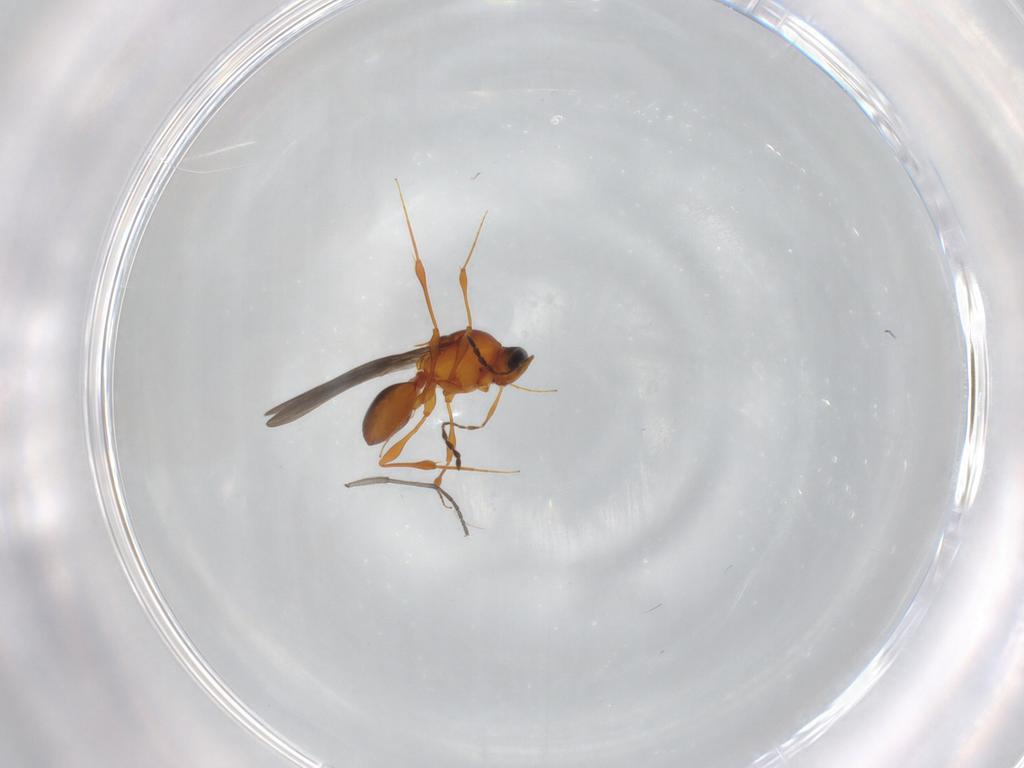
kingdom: Animalia
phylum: Arthropoda
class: Insecta
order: Hymenoptera
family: Platygastridae
